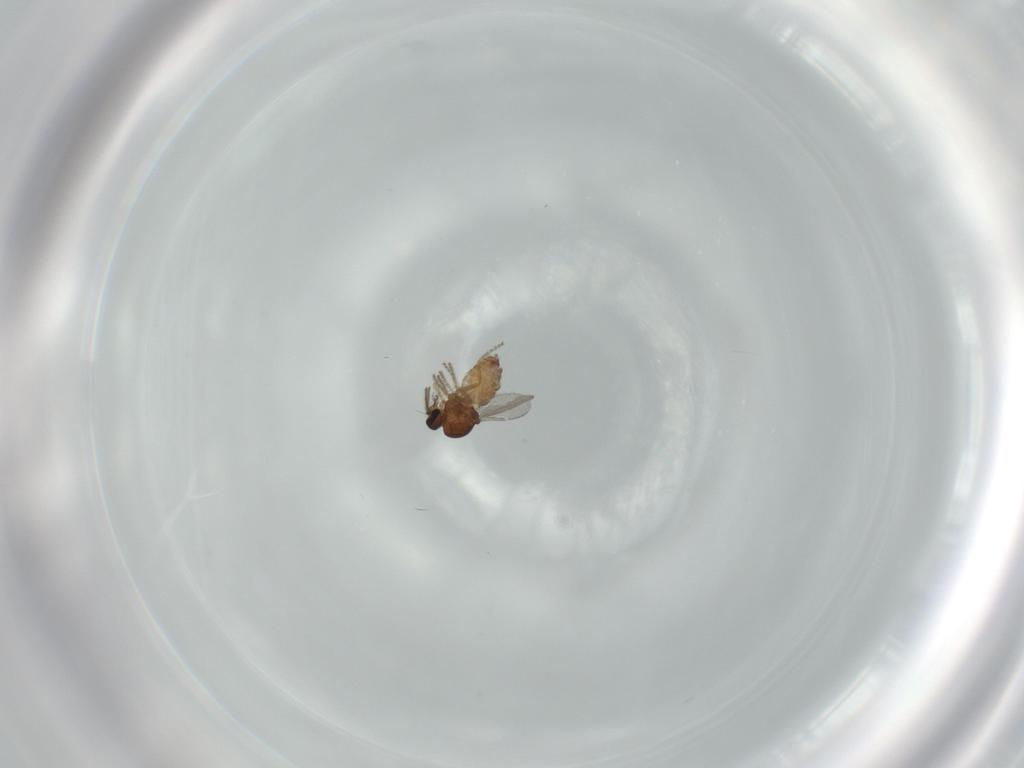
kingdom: Animalia
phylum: Arthropoda
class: Insecta
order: Diptera
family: Ceratopogonidae
